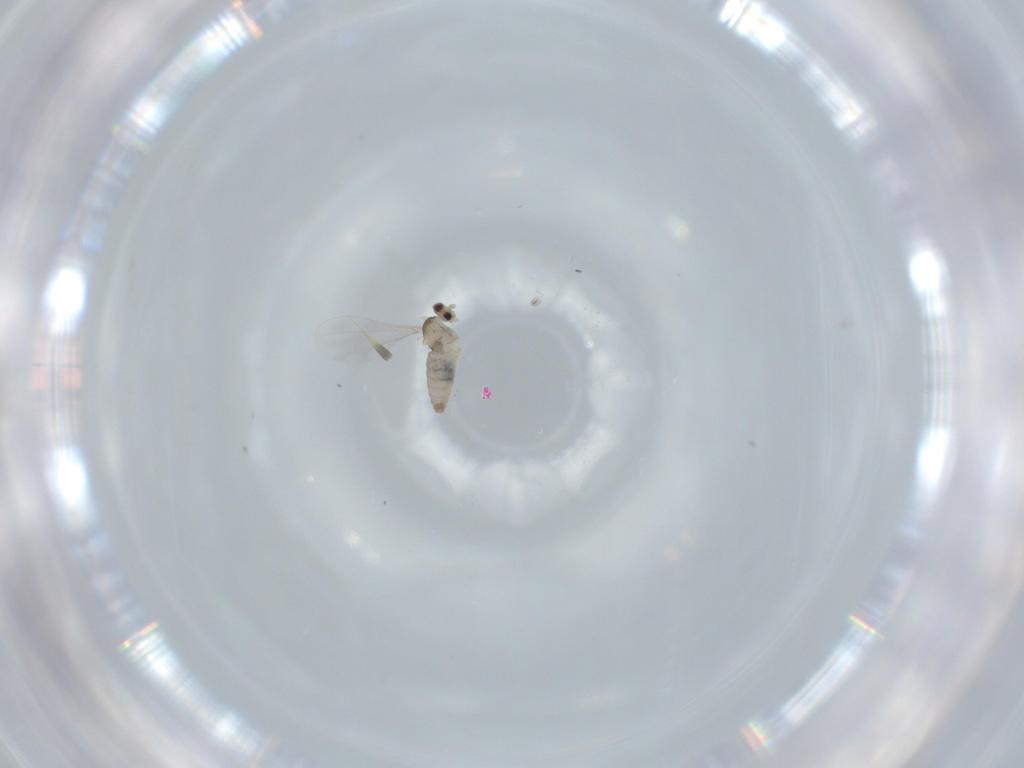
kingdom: Animalia
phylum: Arthropoda
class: Insecta
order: Diptera
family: Cecidomyiidae
